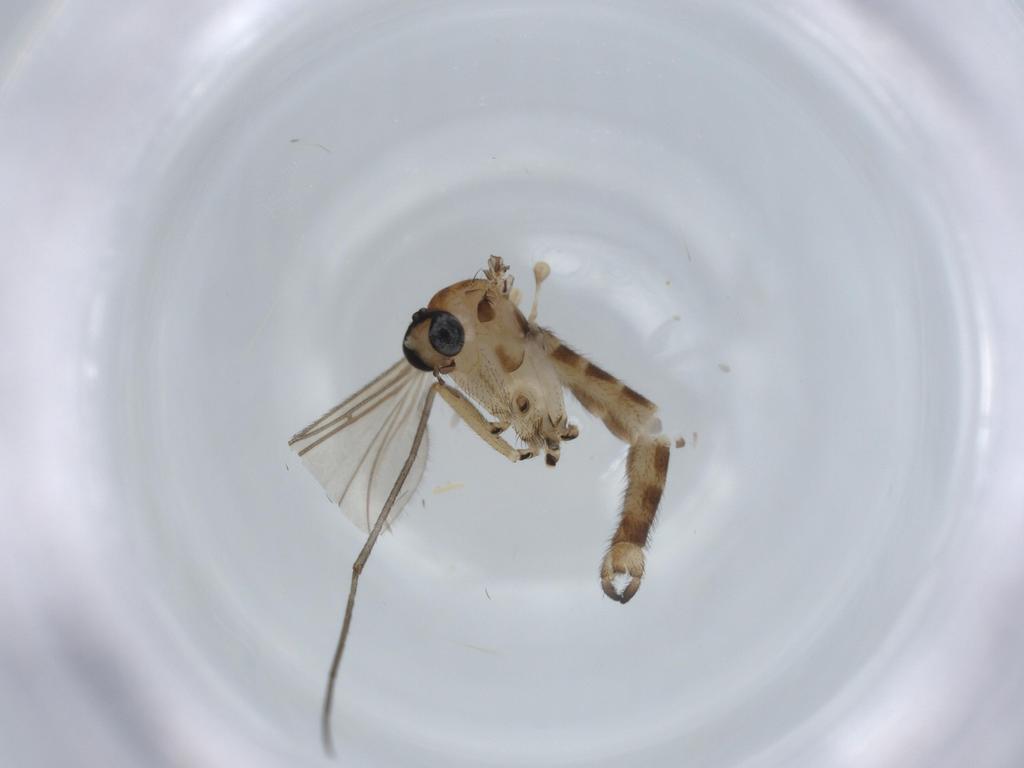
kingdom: Animalia
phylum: Arthropoda
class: Insecta
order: Diptera
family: Sciaridae
